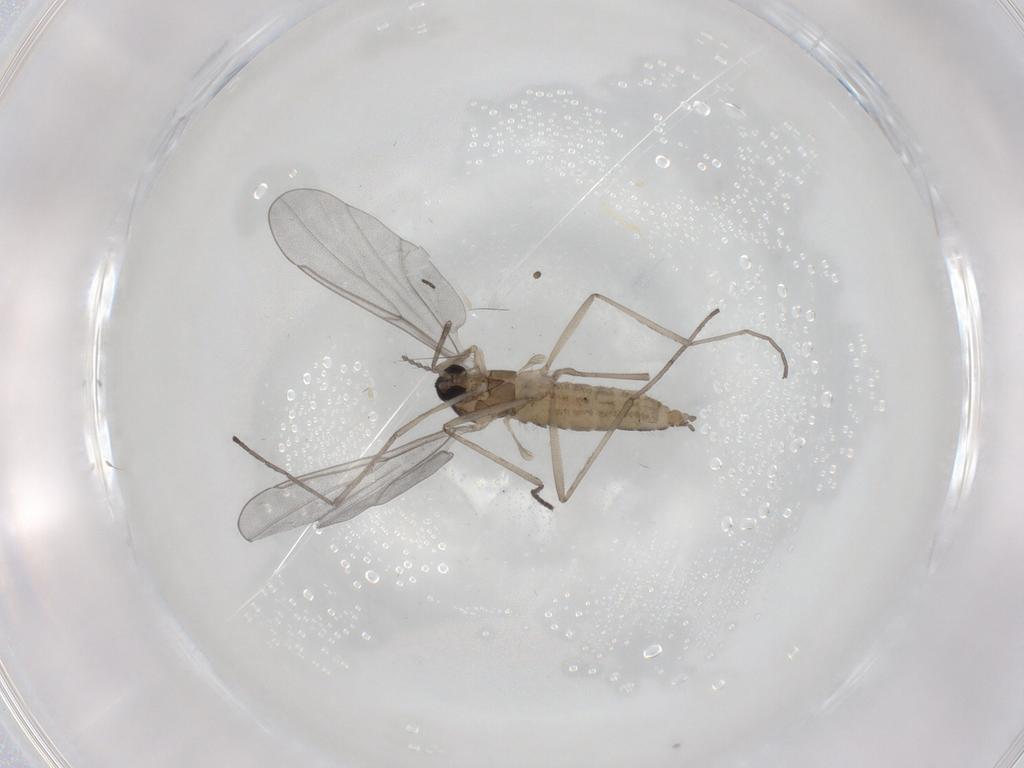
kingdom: Animalia
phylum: Arthropoda
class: Insecta
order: Diptera
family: Cecidomyiidae
